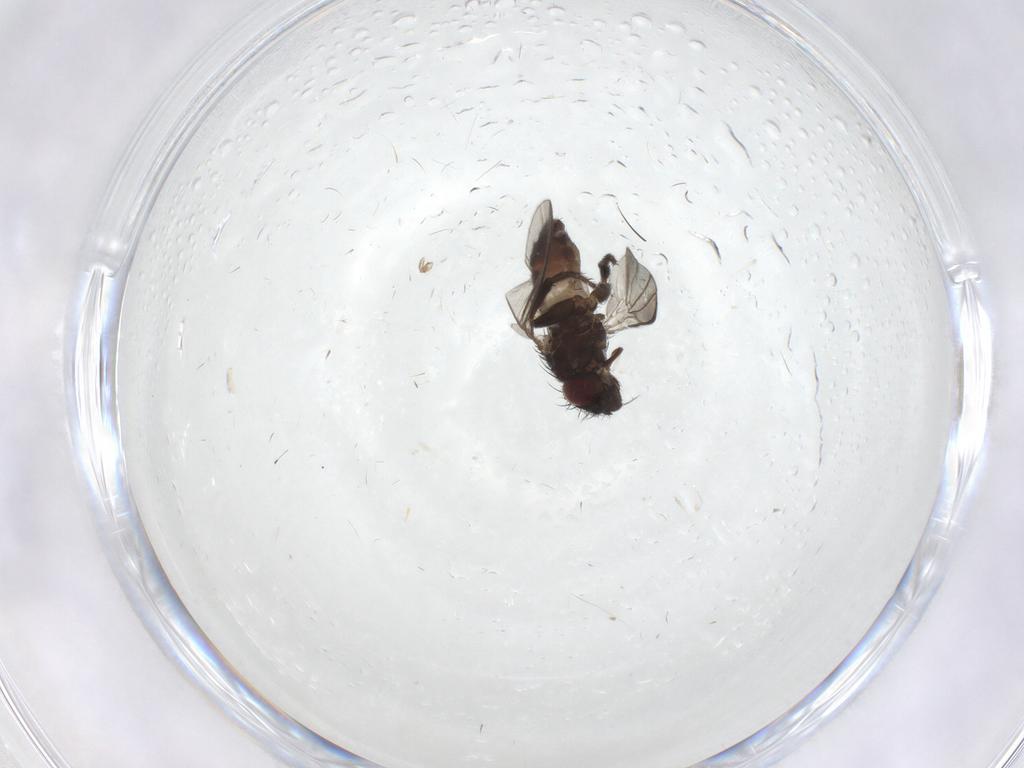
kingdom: Animalia
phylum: Arthropoda
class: Insecta
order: Diptera
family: Milichiidae
